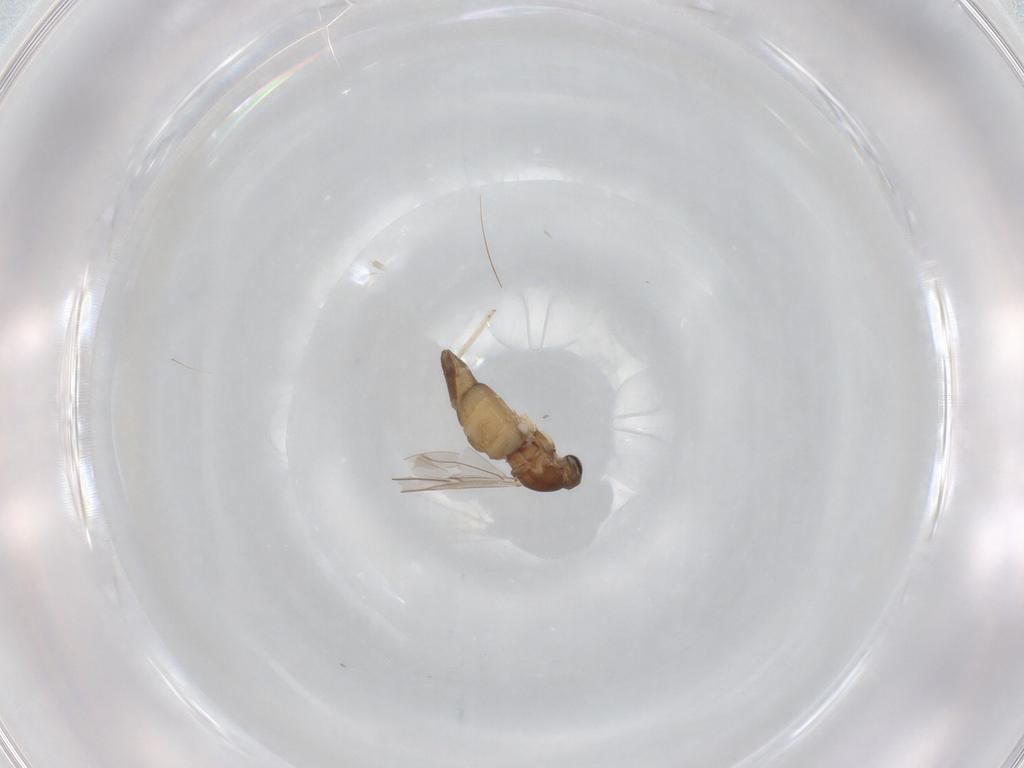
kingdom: Animalia
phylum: Arthropoda
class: Insecta
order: Diptera
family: Cecidomyiidae
